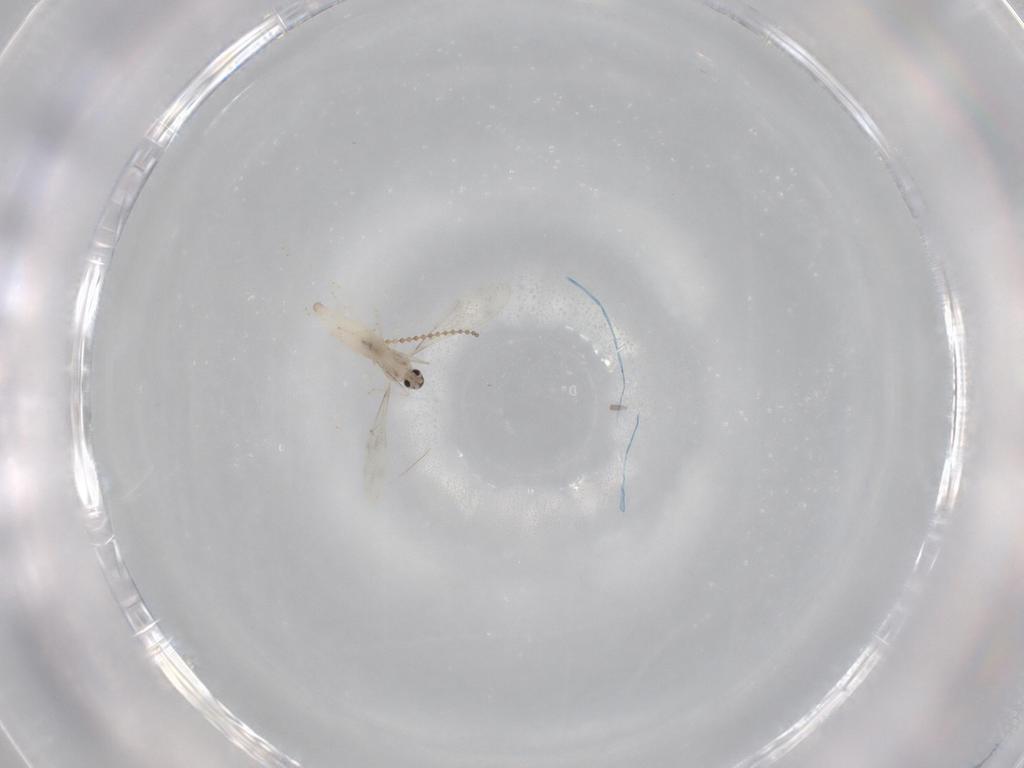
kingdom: Animalia
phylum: Arthropoda
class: Insecta
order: Diptera
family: Cecidomyiidae
